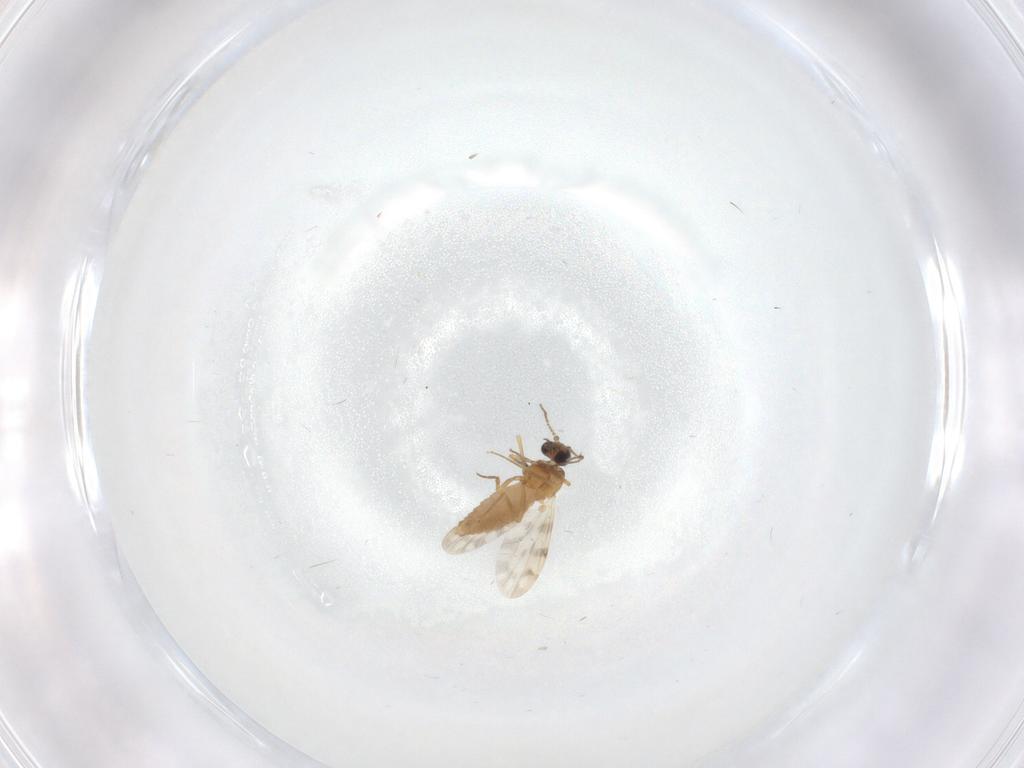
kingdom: Animalia
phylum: Arthropoda
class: Insecta
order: Diptera
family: Ceratopogonidae
